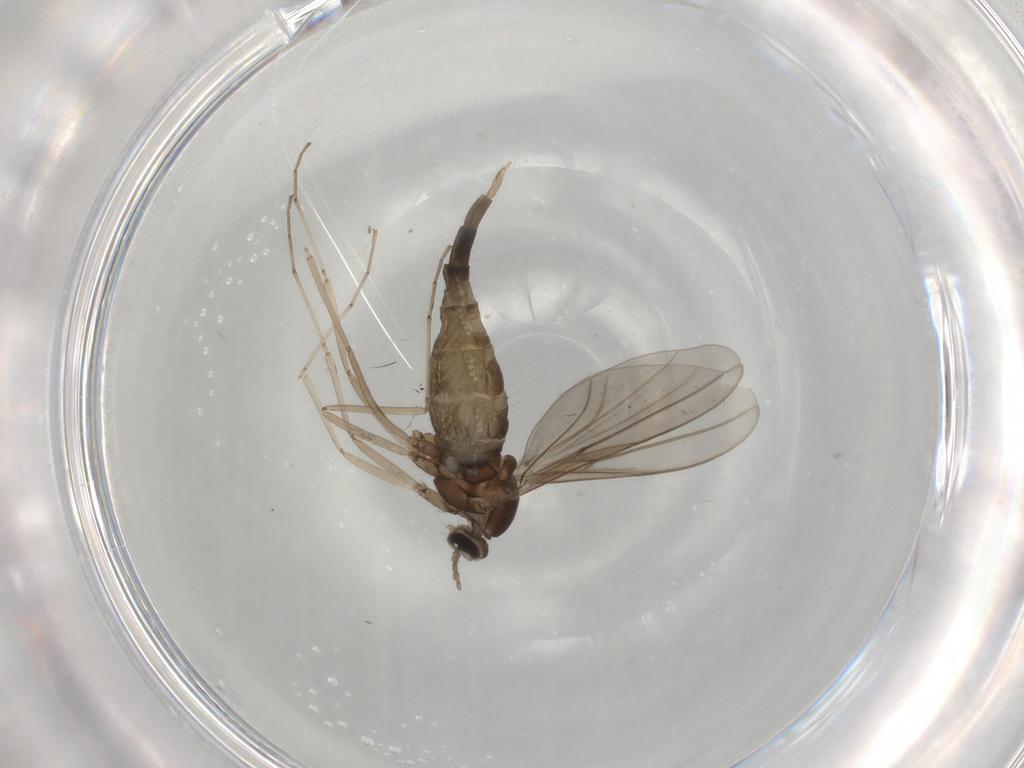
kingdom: Animalia
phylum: Arthropoda
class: Insecta
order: Diptera
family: Cecidomyiidae
